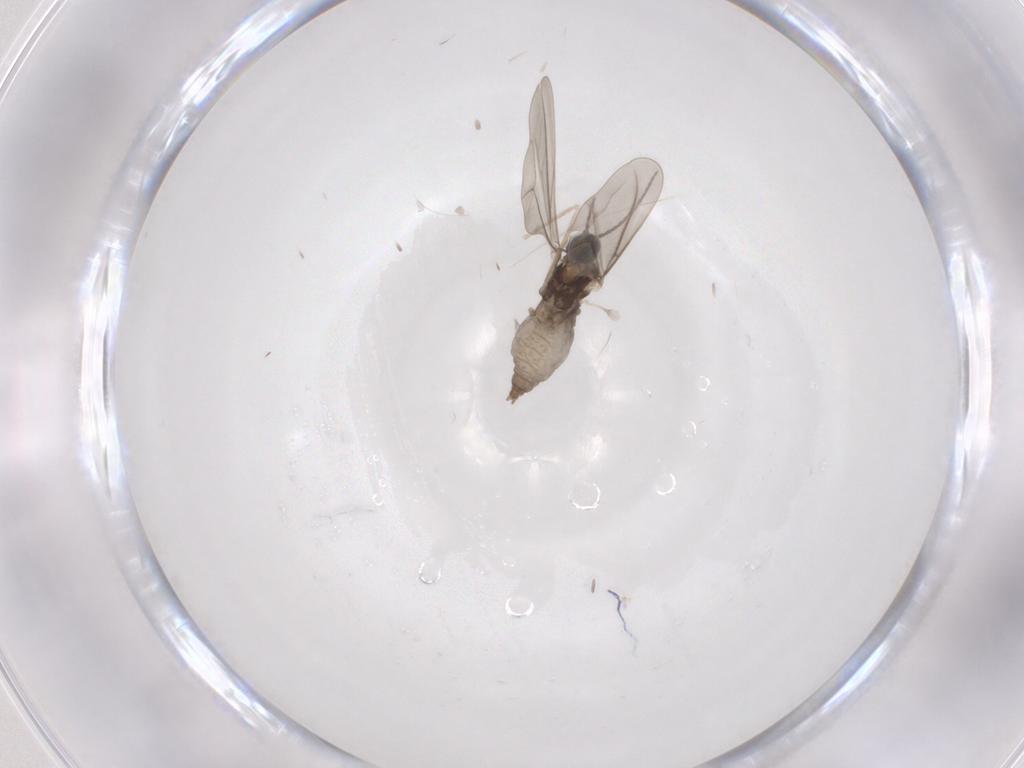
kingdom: Animalia
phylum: Arthropoda
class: Insecta
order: Diptera
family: Cecidomyiidae
